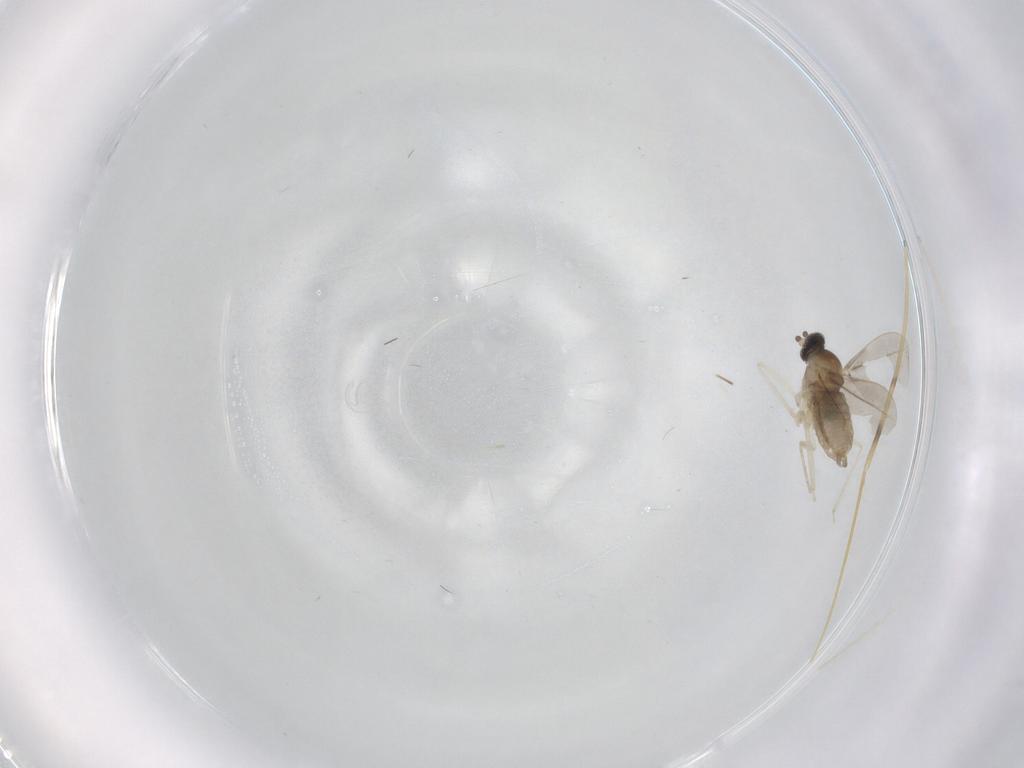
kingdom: Animalia
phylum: Arthropoda
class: Insecta
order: Diptera
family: Cecidomyiidae
